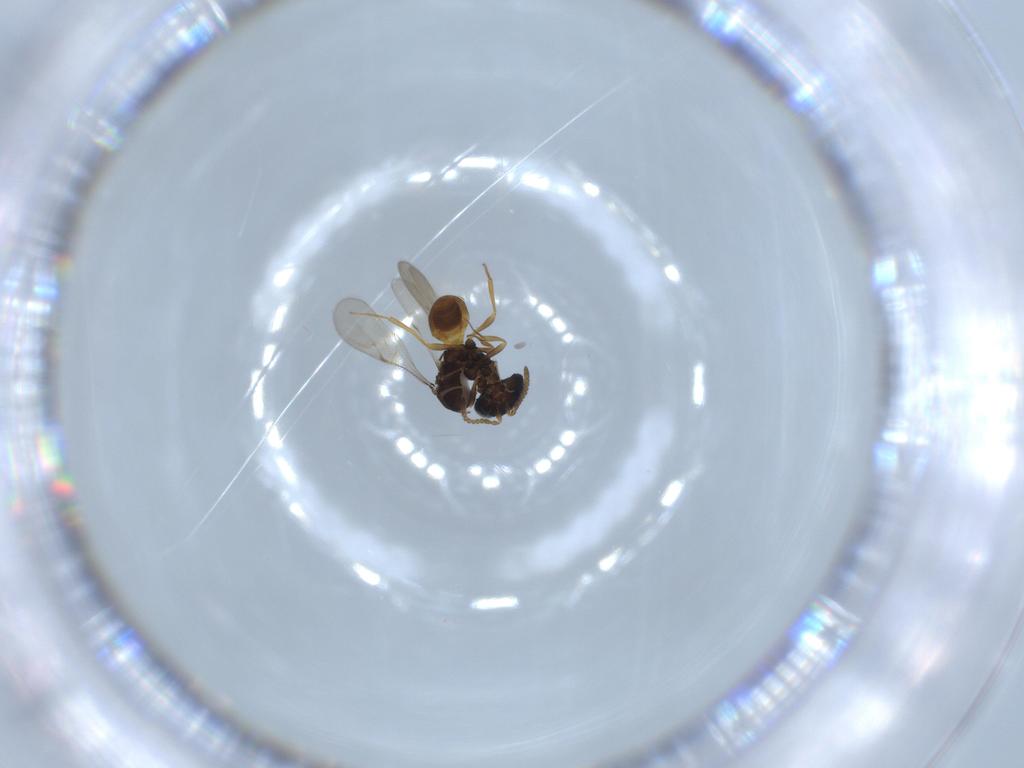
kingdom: Animalia
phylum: Arthropoda
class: Insecta
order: Hymenoptera
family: Scelionidae
